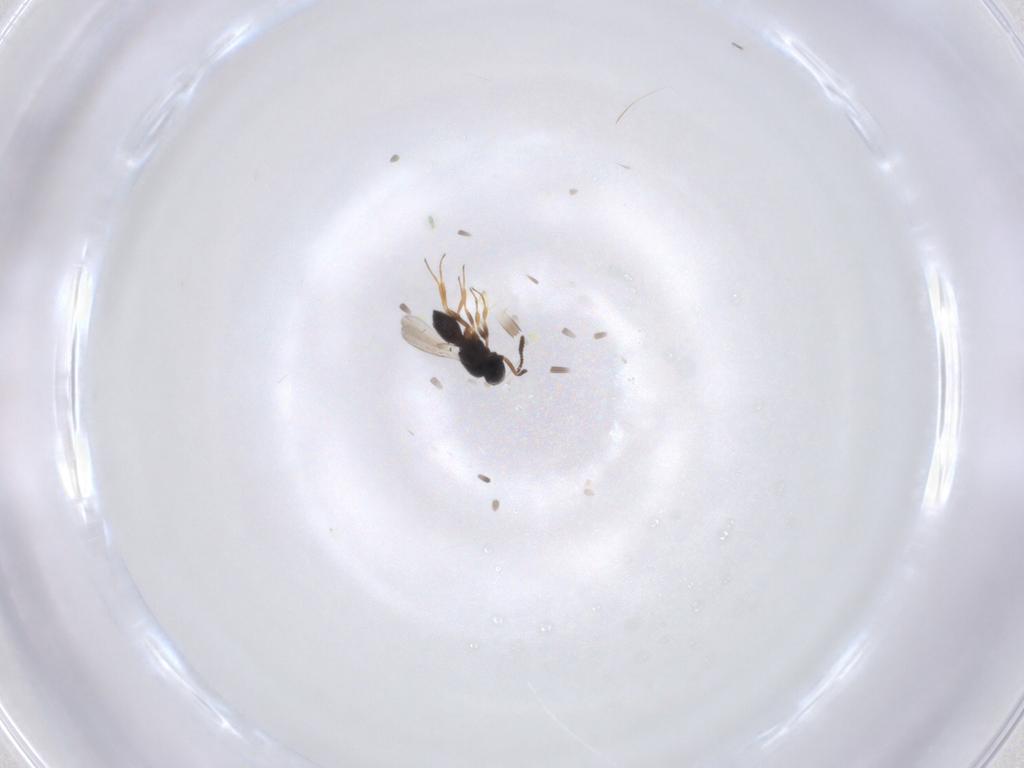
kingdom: Animalia
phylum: Arthropoda
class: Insecta
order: Hymenoptera
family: Scelionidae
